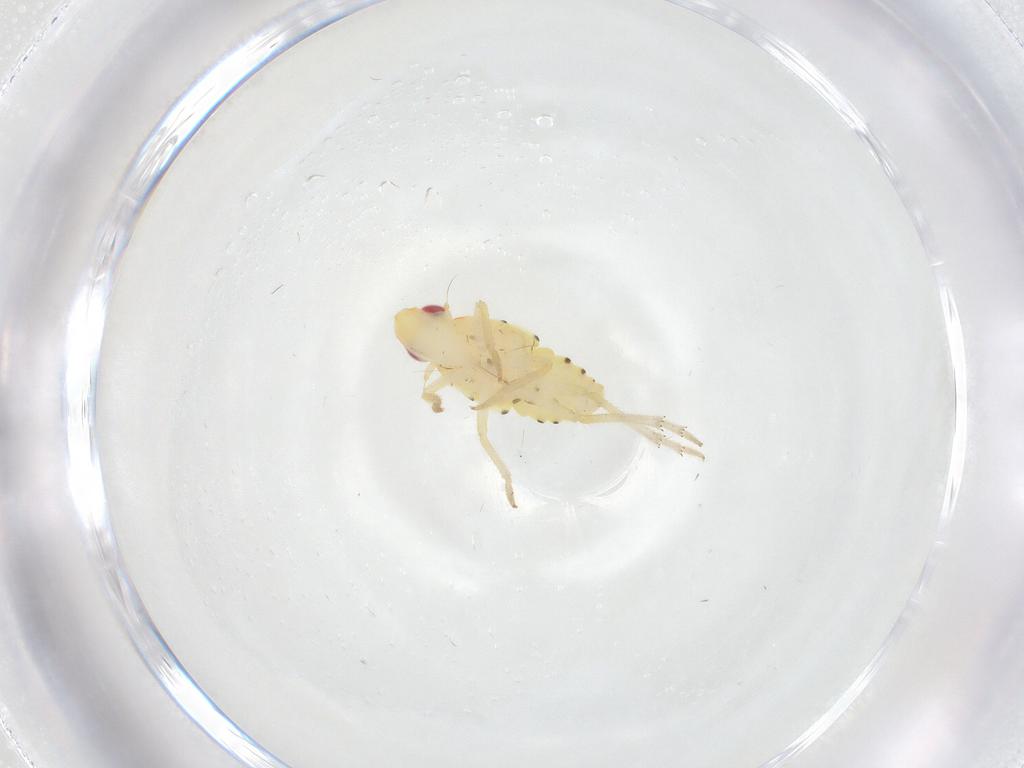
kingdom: Animalia
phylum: Arthropoda
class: Insecta
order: Hemiptera
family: Tropiduchidae
